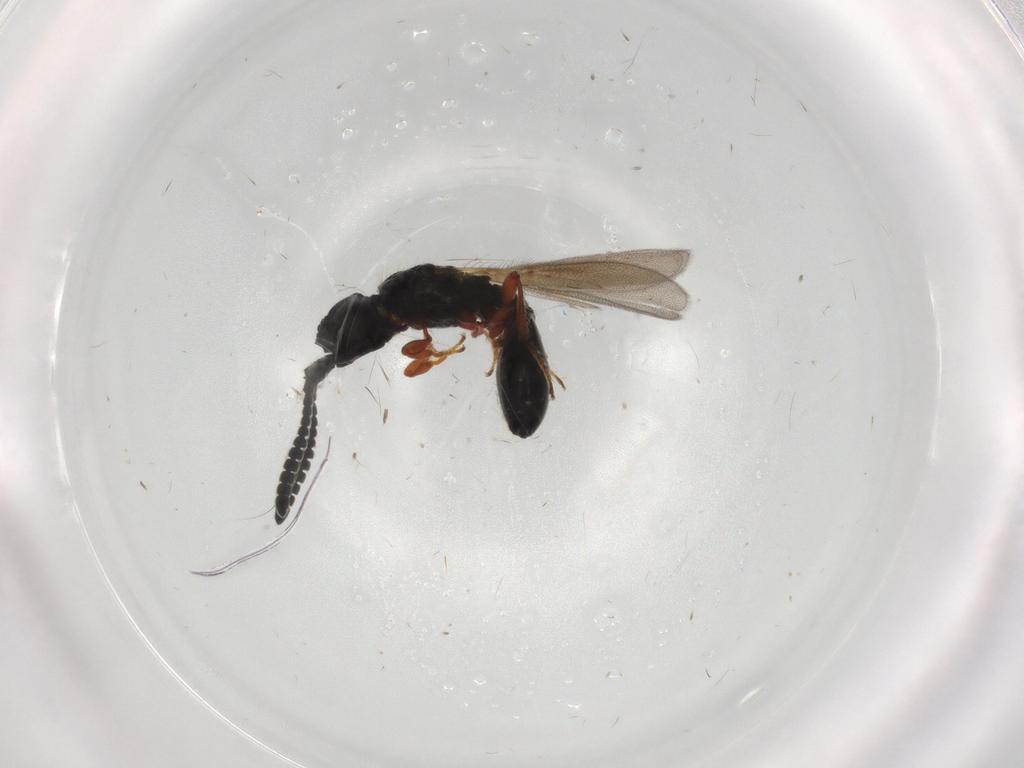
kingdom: Animalia
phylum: Arthropoda
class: Insecta
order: Hymenoptera
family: Diapriidae
